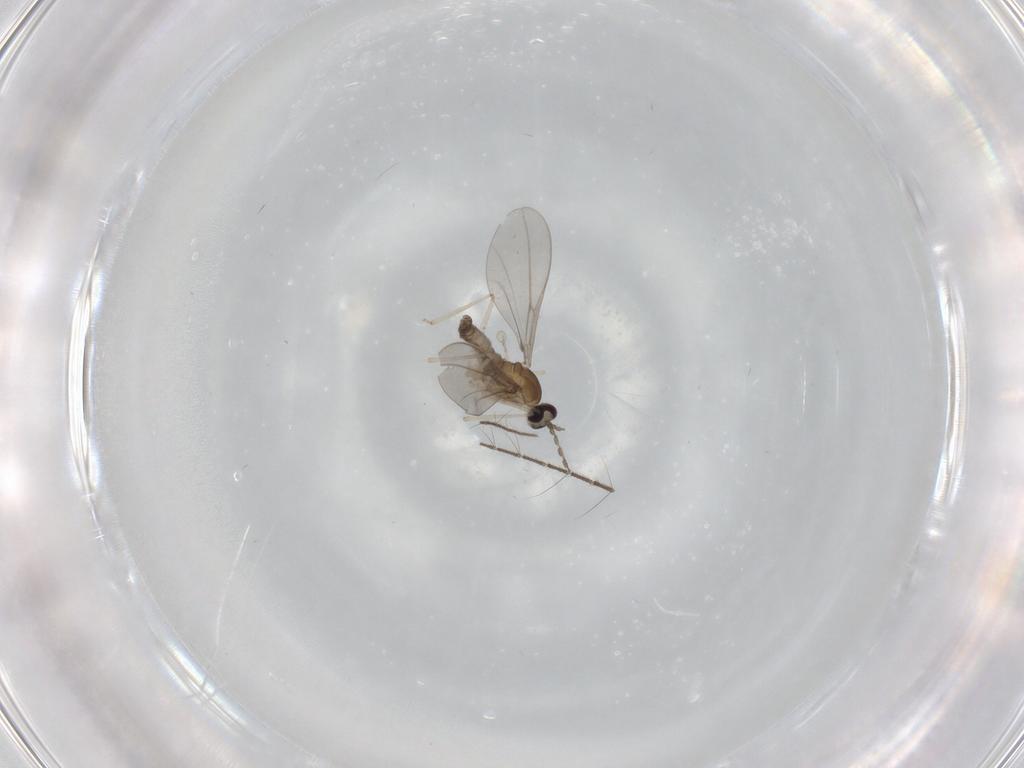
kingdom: Animalia
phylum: Arthropoda
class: Insecta
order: Diptera
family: Cecidomyiidae
